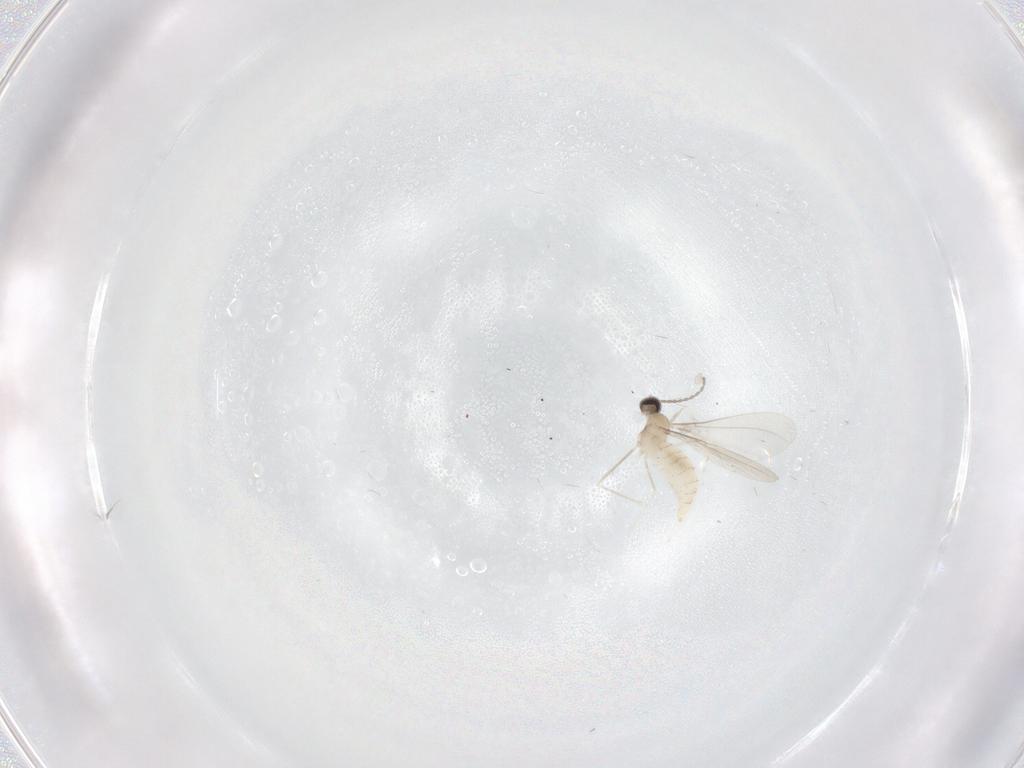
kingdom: Animalia
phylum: Arthropoda
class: Insecta
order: Diptera
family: Cecidomyiidae
